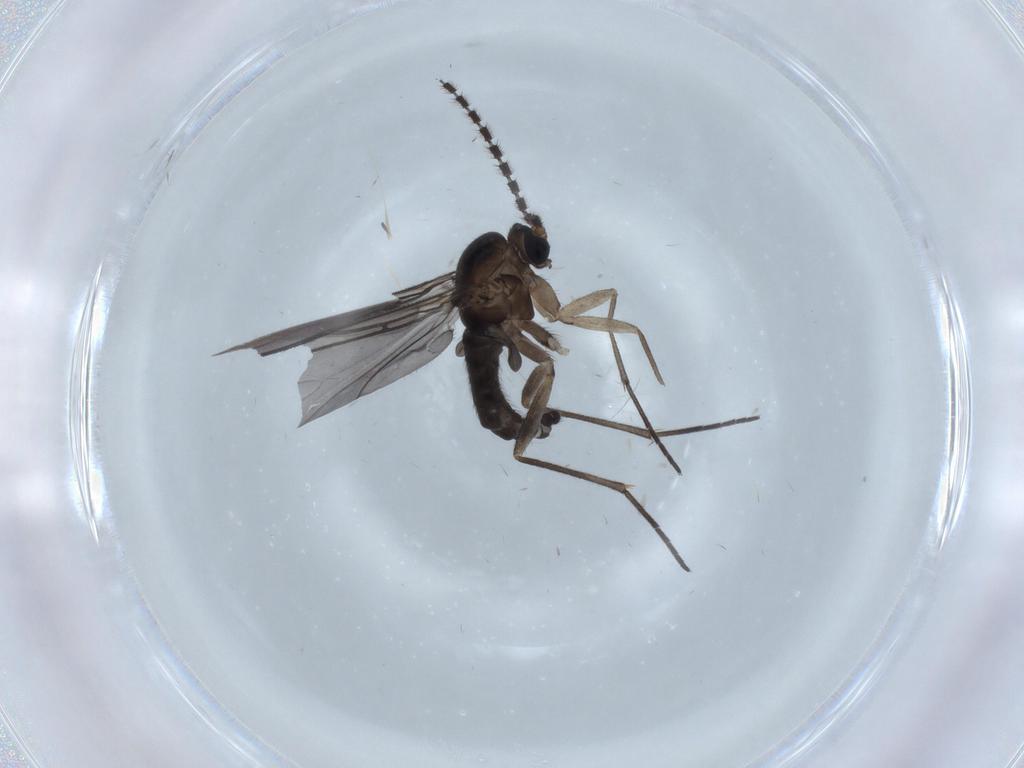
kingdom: Animalia
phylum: Arthropoda
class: Insecta
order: Diptera
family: Sciaridae
